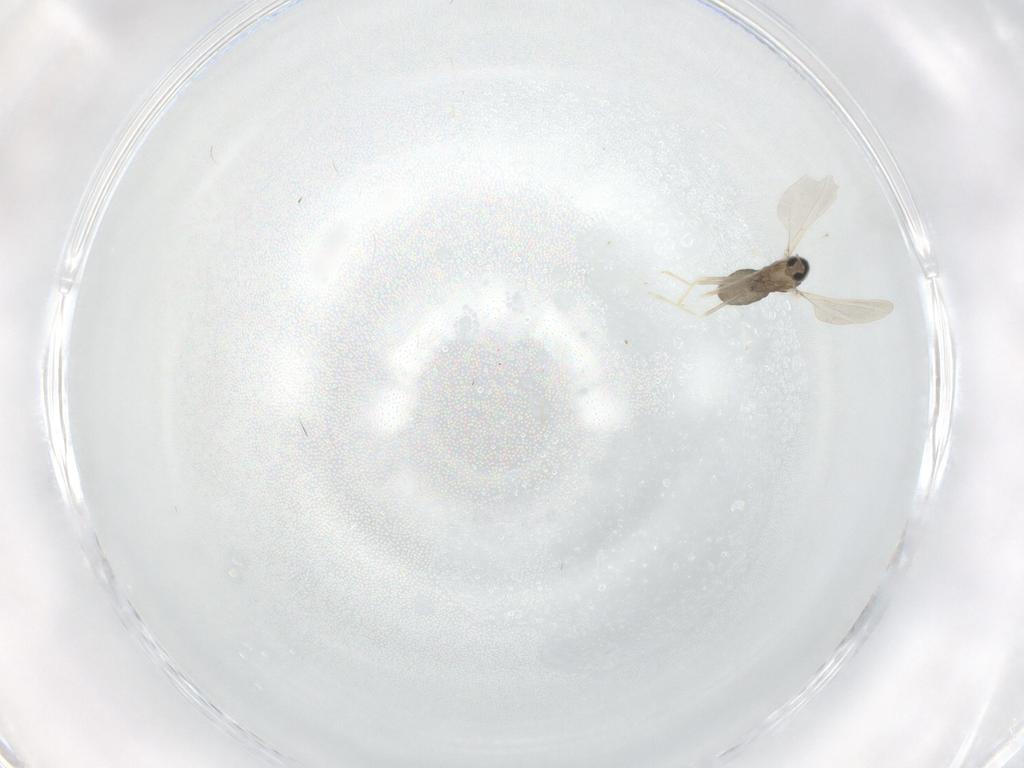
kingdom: Animalia
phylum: Arthropoda
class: Insecta
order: Diptera
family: Cecidomyiidae
